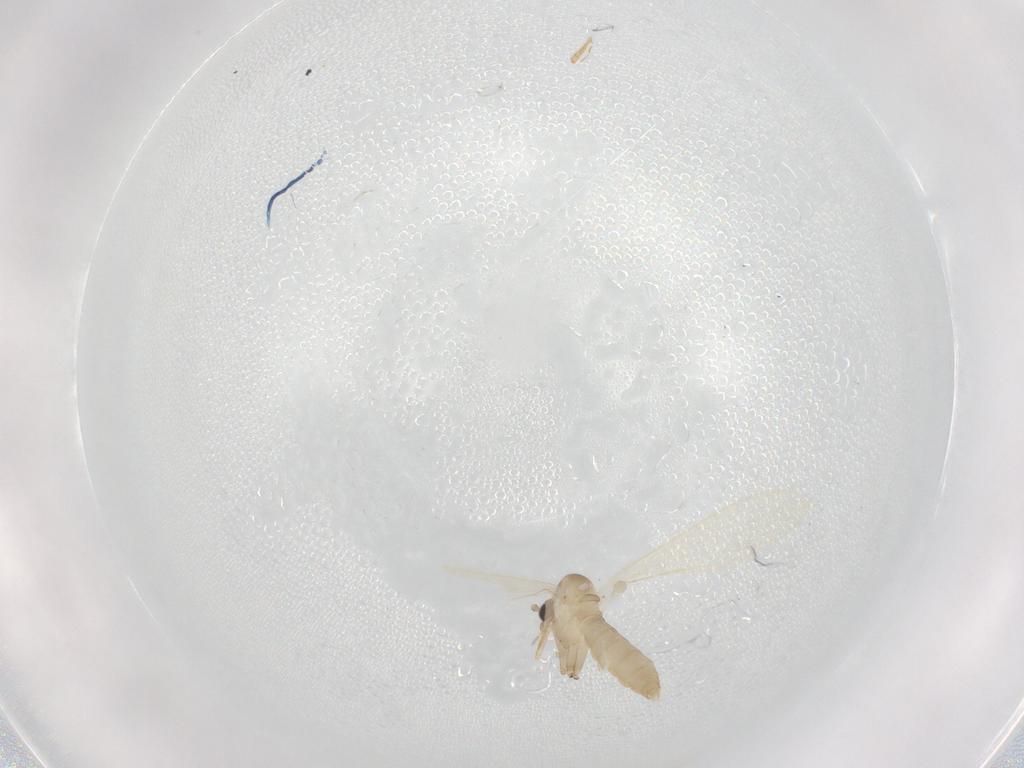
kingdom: Animalia
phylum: Arthropoda
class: Insecta
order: Diptera
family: Psychodidae
